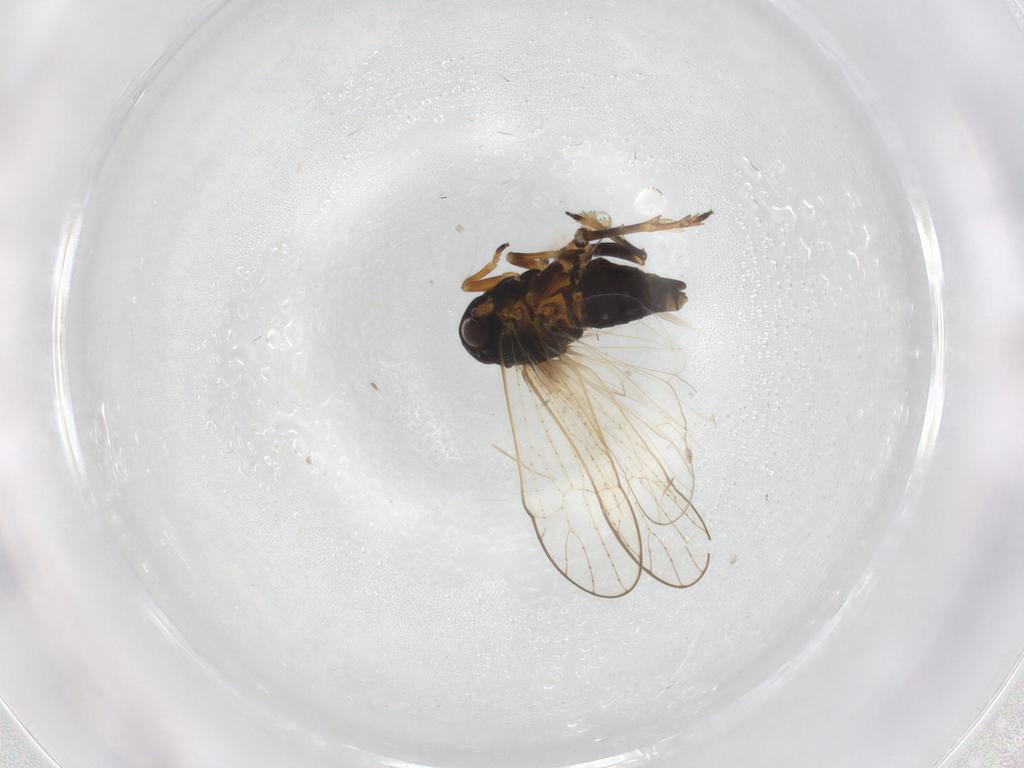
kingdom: Animalia
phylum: Arthropoda
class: Insecta
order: Hemiptera
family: Delphacidae
